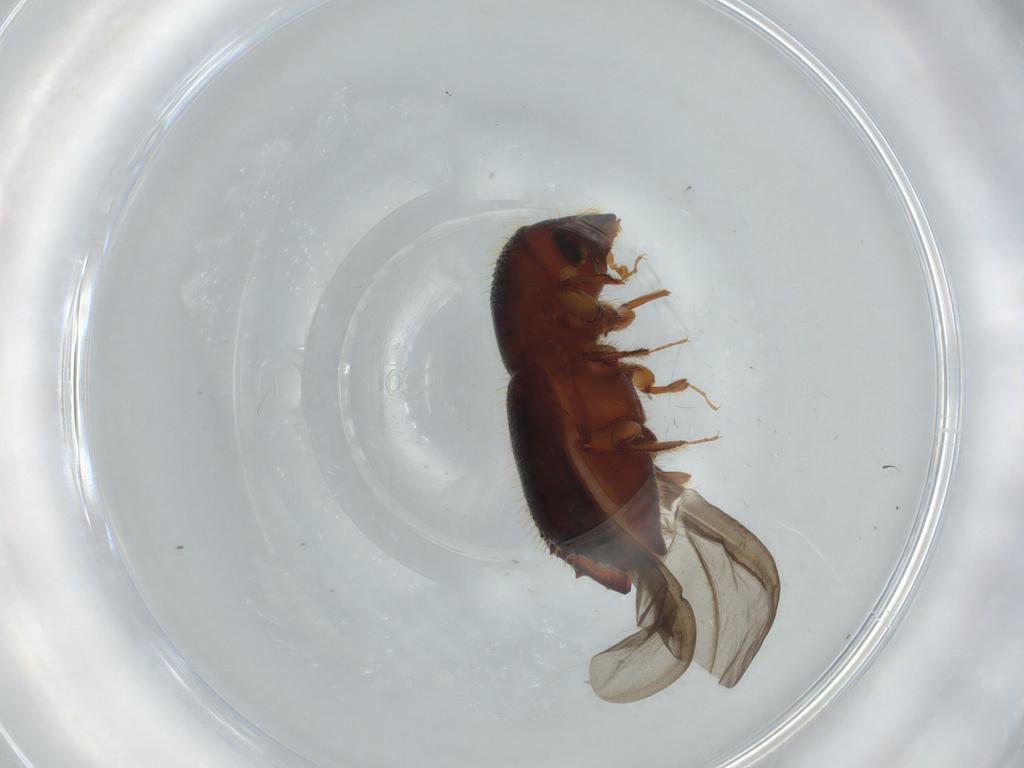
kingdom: Animalia
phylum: Arthropoda
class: Insecta
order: Coleoptera
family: Curculionidae
